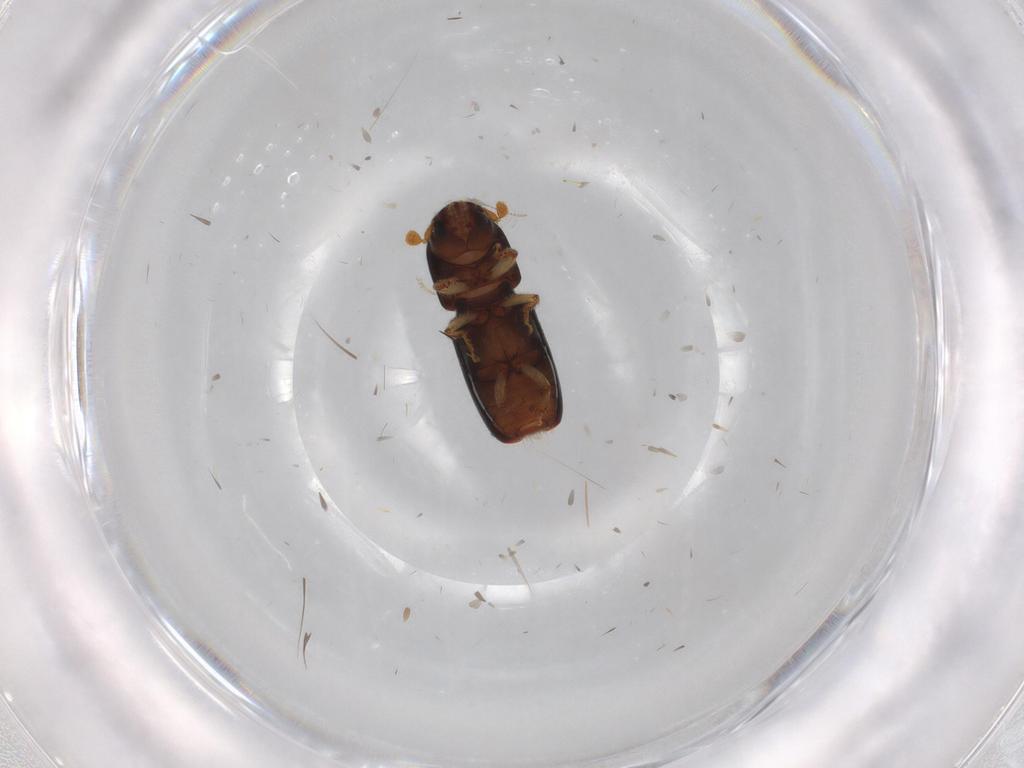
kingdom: Animalia
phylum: Arthropoda
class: Insecta
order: Coleoptera
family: Curculionidae
